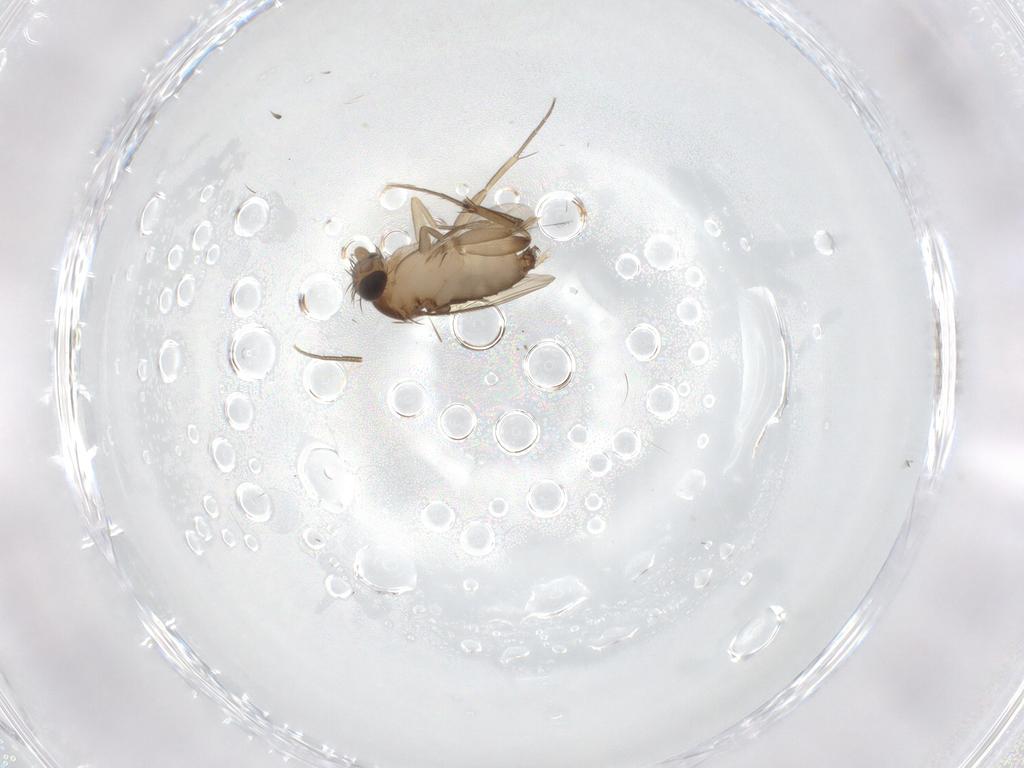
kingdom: Animalia
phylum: Arthropoda
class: Insecta
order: Diptera
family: Phoridae
